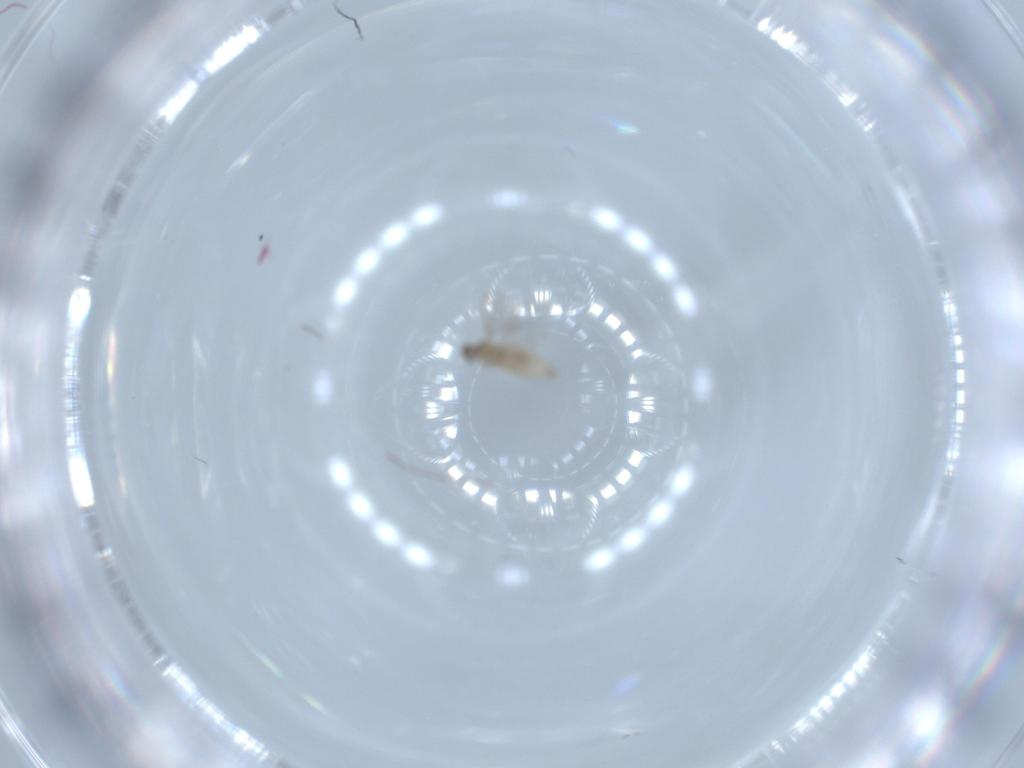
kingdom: Animalia
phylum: Arthropoda
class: Insecta
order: Diptera
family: Cecidomyiidae
